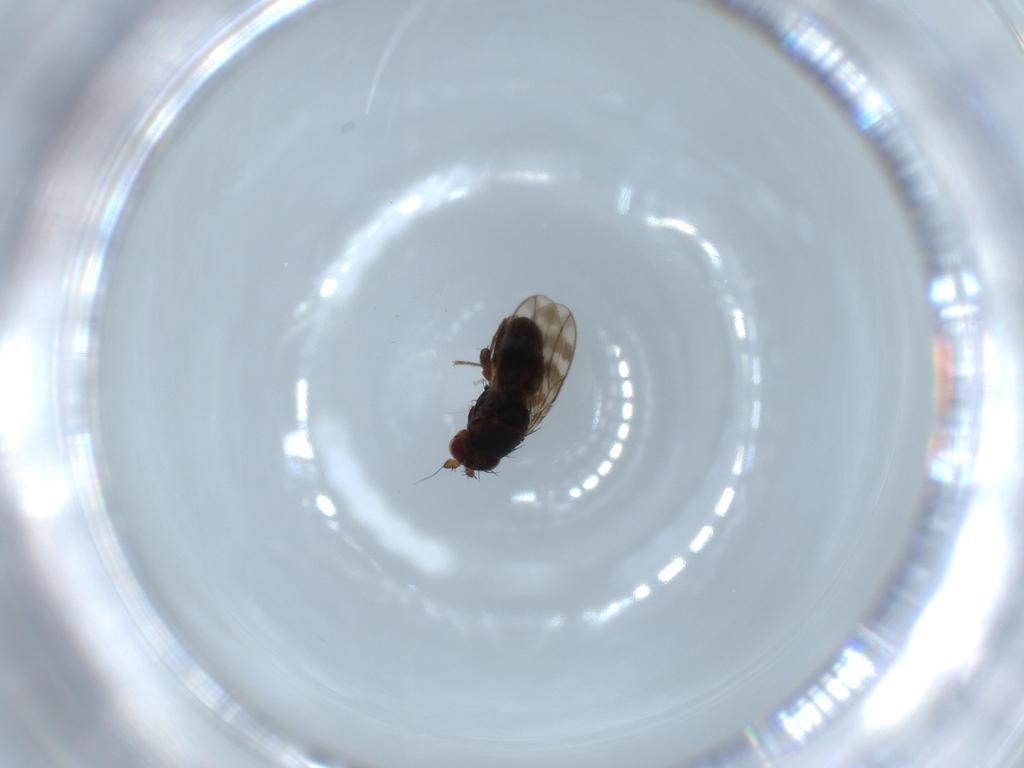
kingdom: Animalia
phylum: Arthropoda
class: Insecta
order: Diptera
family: Sphaeroceridae
